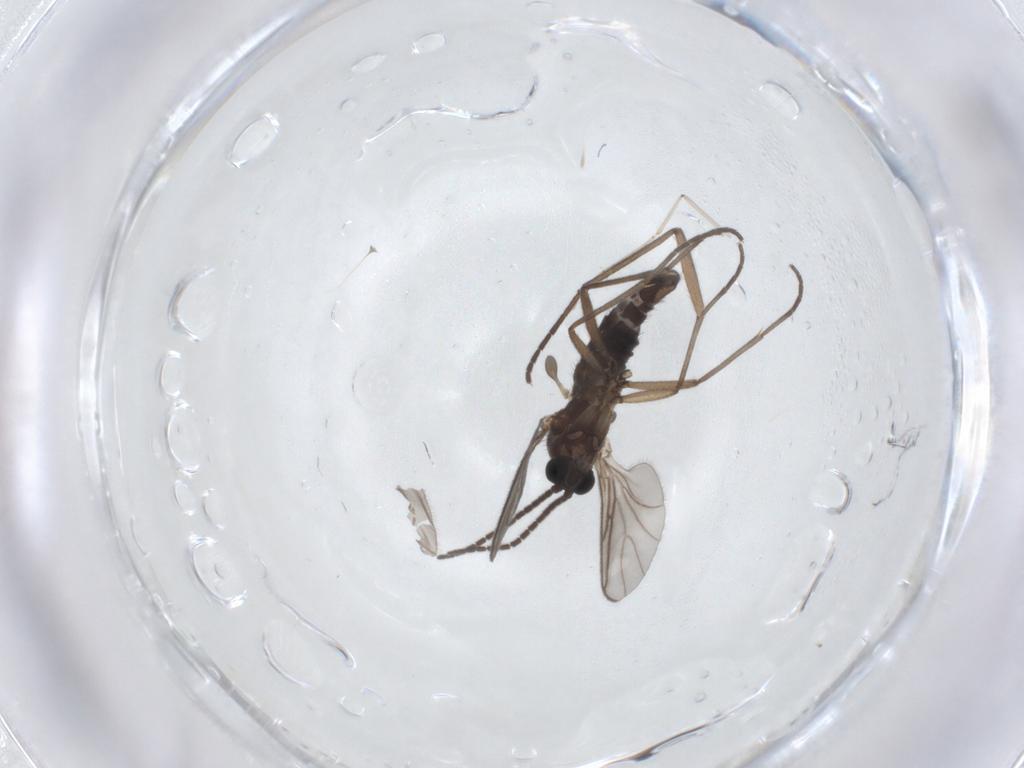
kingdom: Animalia
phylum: Arthropoda
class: Insecta
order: Diptera
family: Sciaridae
